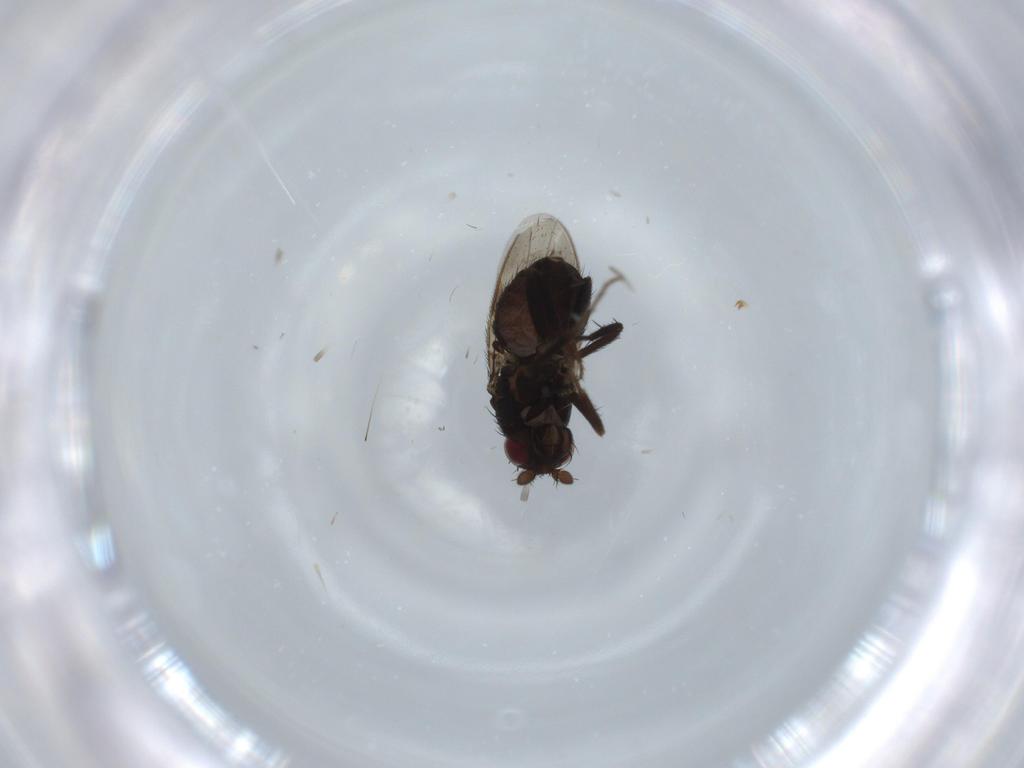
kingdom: Animalia
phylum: Arthropoda
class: Insecta
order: Diptera
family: Sphaeroceridae
